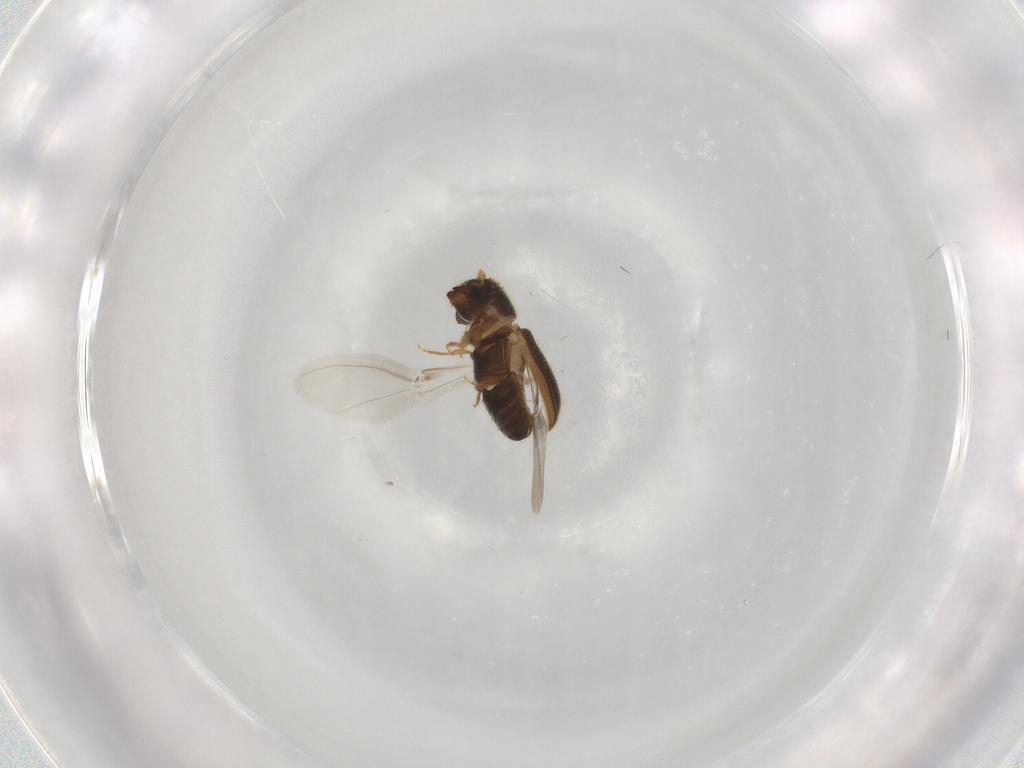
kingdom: Animalia
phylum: Arthropoda
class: Insecta
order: Coleoptera
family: Curculionidae
